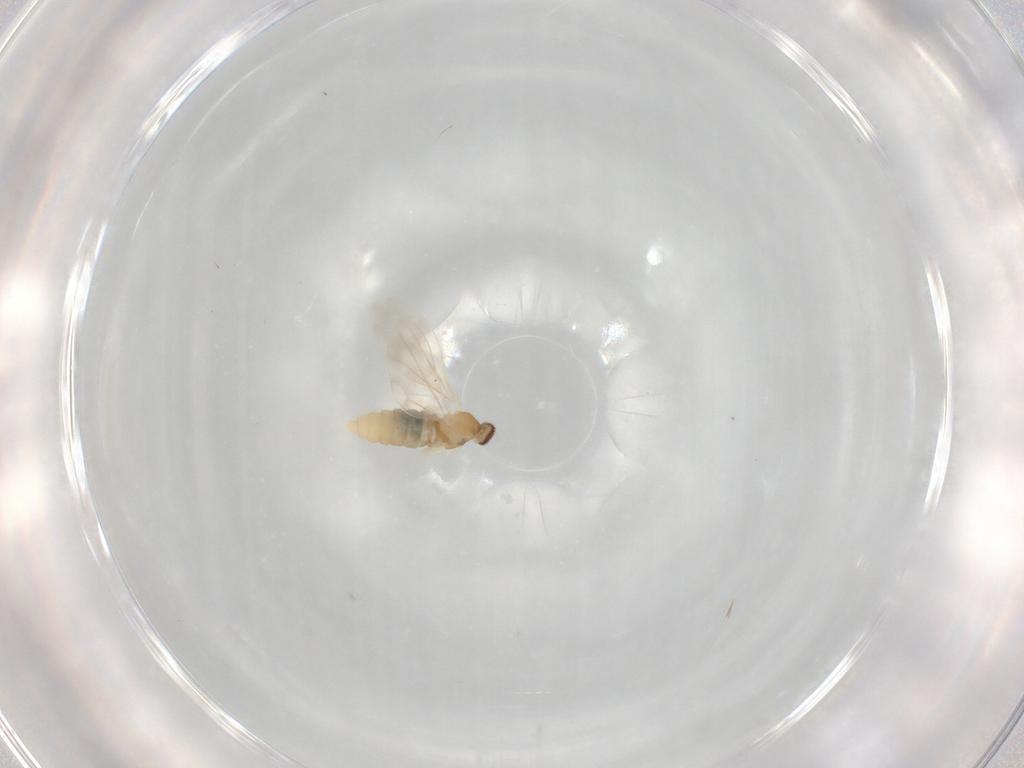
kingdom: Animalia
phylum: Arthropoda
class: Insecta
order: Diptera
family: Cecidomyiidae
